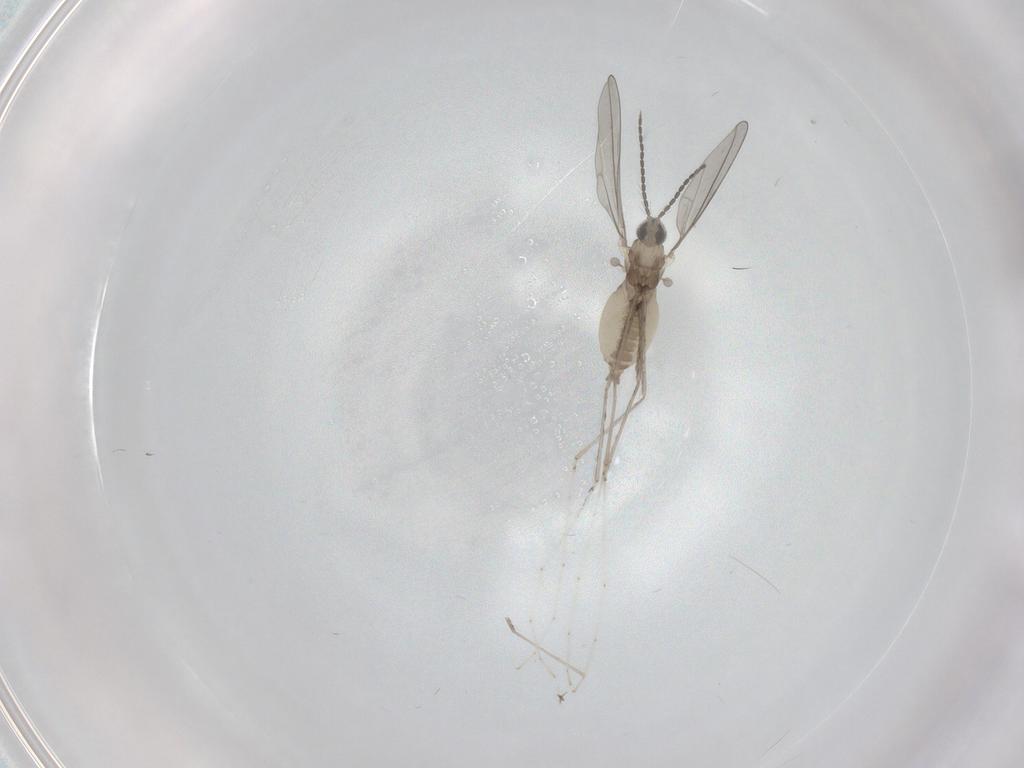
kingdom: Animalia
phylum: Arthropoda
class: Insecta
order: Diptera
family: Cecidomyiidae
